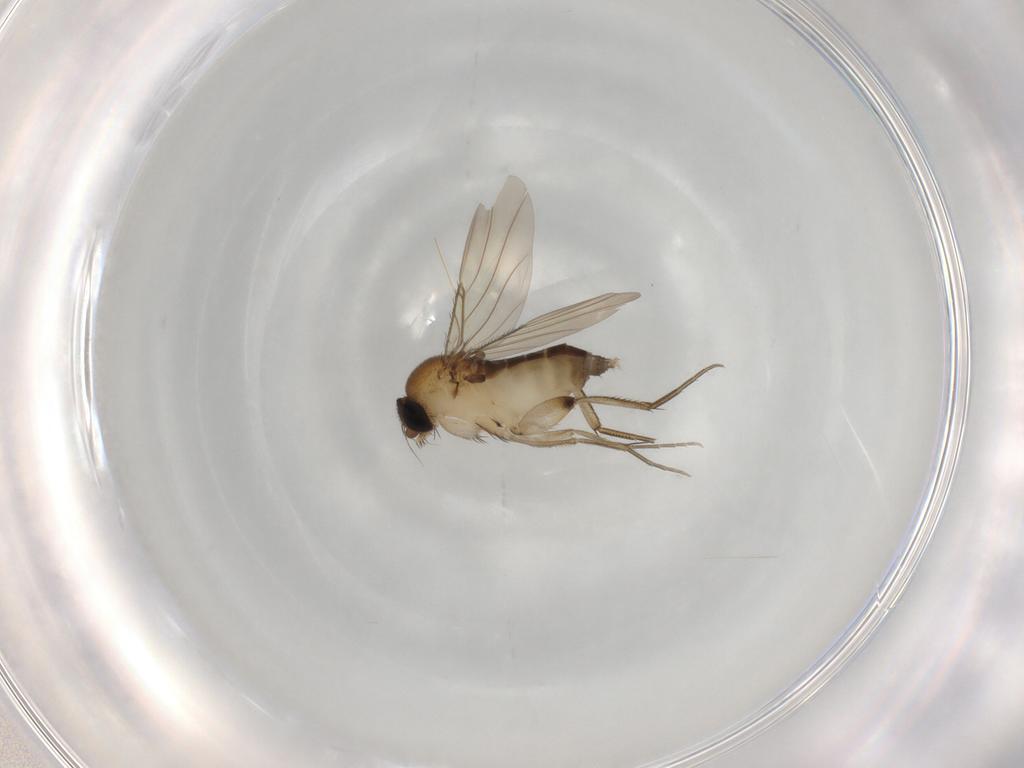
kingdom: Animalia
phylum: Arthropoda
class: Insecta
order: Diptera
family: Phoridae
